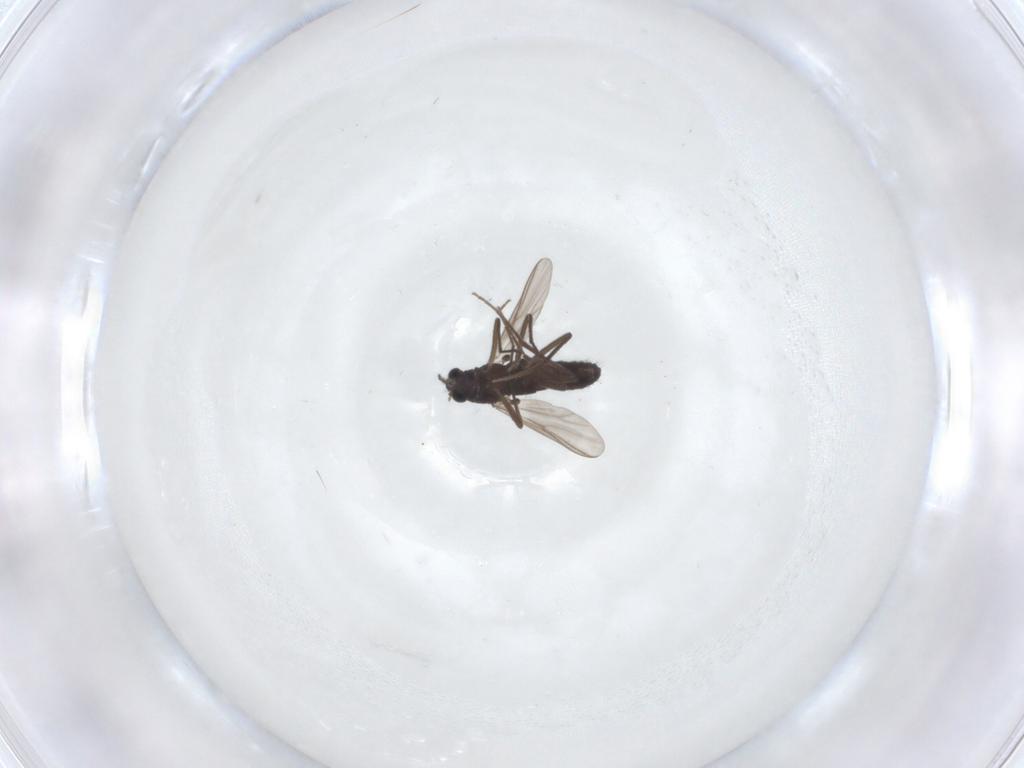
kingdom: Animalia
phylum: Arthropoda
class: Insecta
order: Diptera
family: Chironomidae
